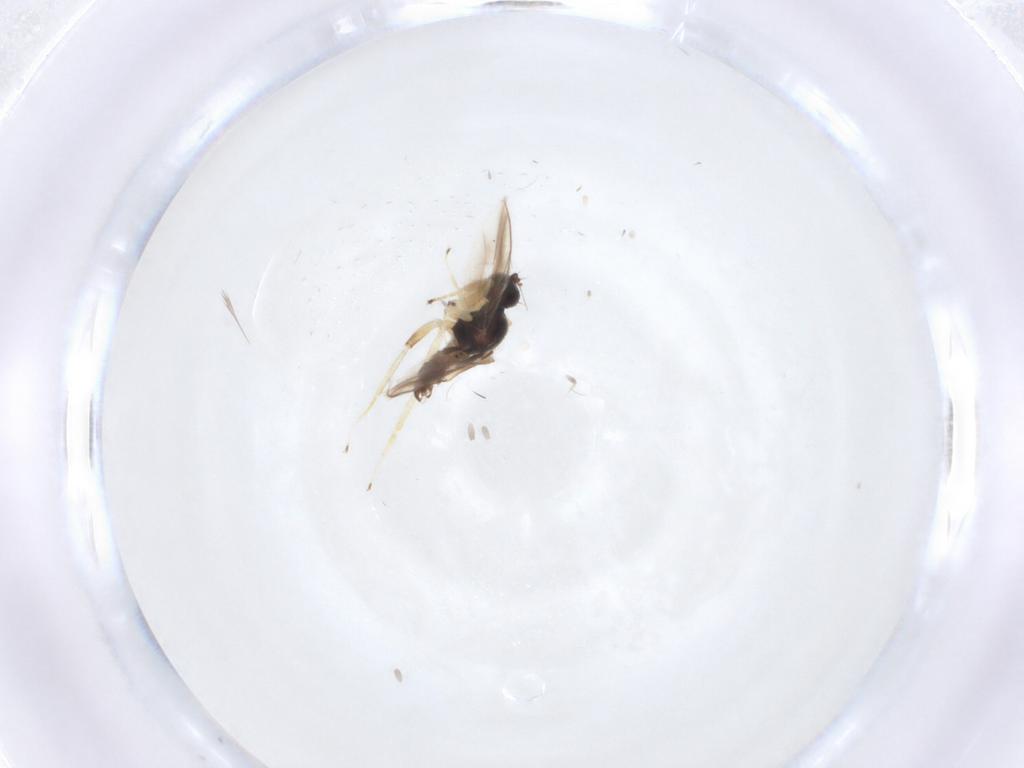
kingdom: Animalia
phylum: Arthropoda
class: Insecta
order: Diptera
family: Hybotidae
